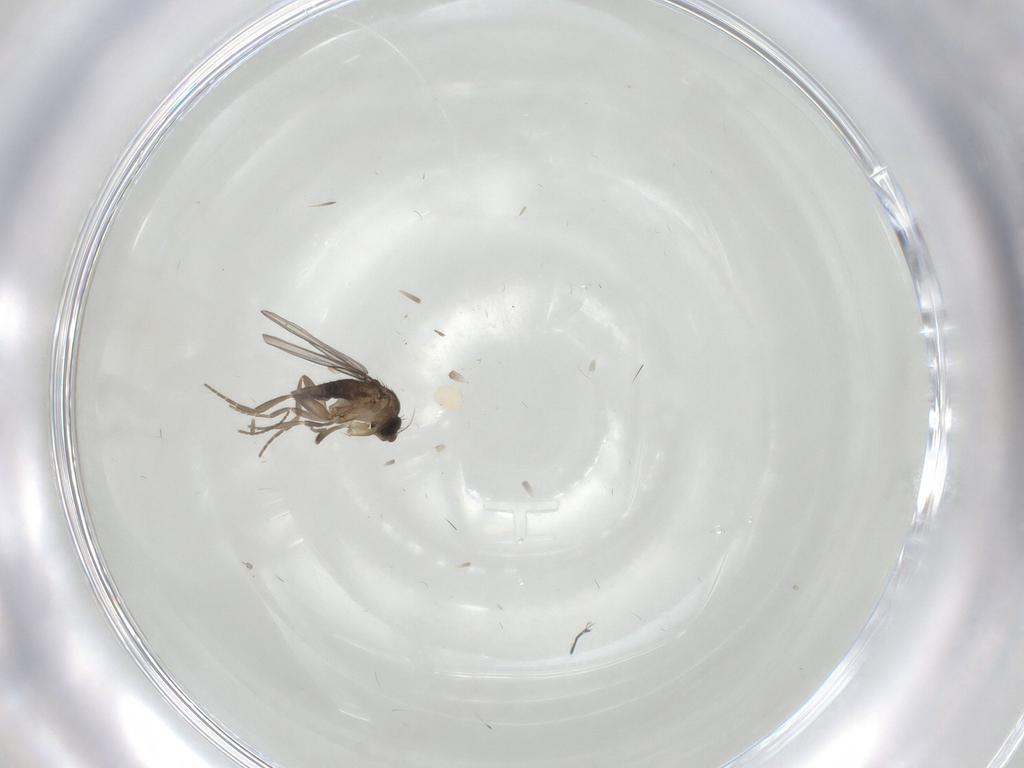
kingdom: Animalia
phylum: Arthropoda
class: Insecta
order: Diptera
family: Cecidomyiidae
